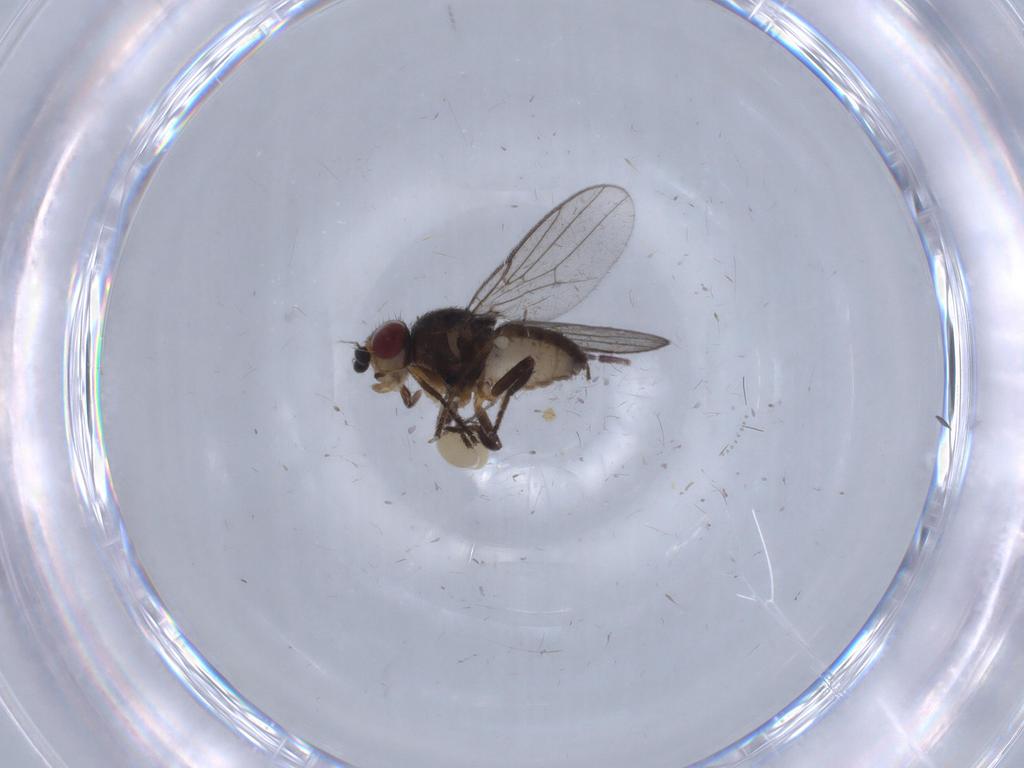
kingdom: Animalia
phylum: Arthropoda
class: Insecta
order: Diptera
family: Chloropidae
